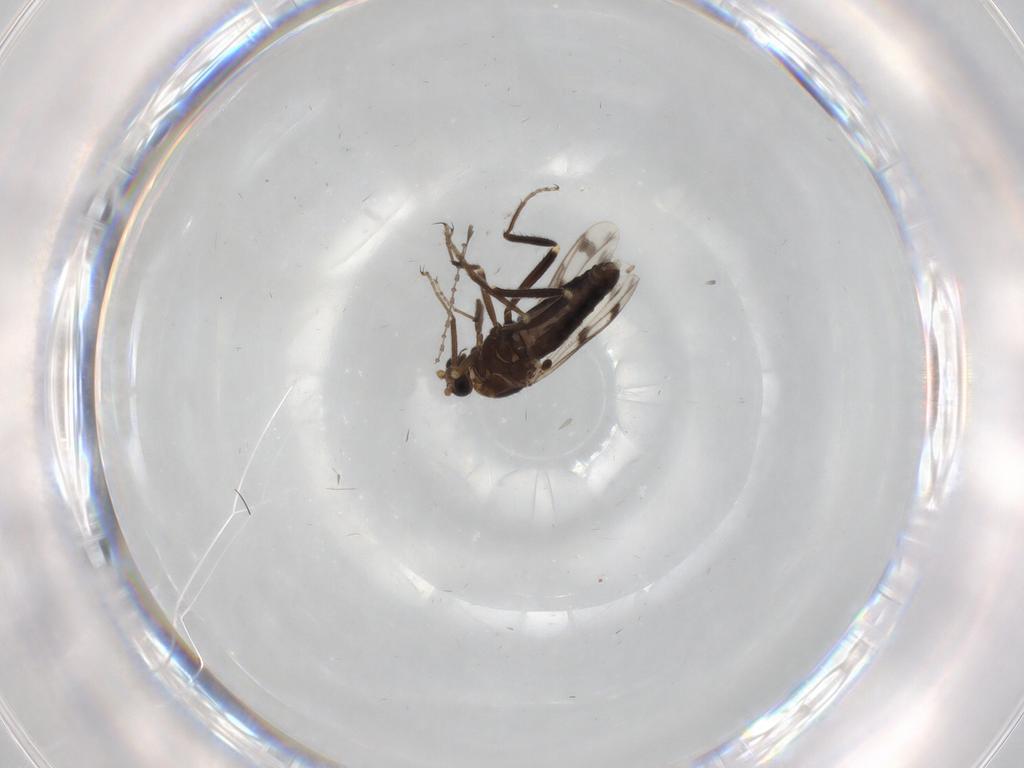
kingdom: Animalia
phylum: Arthropoda
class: Insecta
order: Diptera
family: Ceratopogonidae
